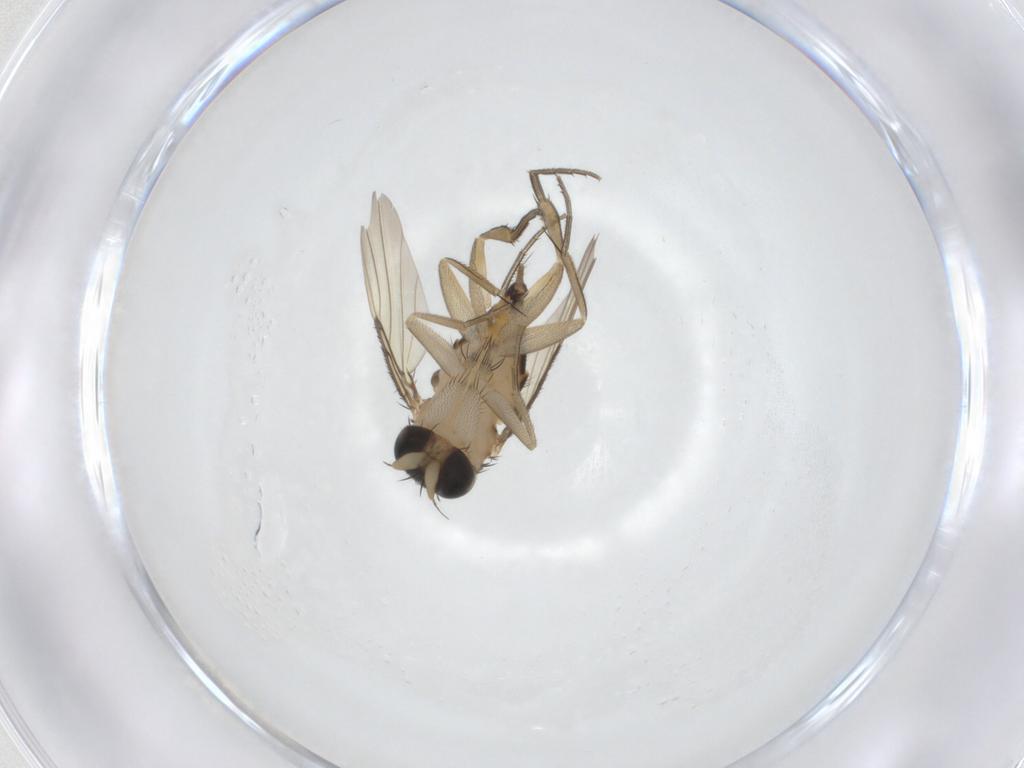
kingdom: Animalia
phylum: Arthropoda
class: Insecta
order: Diptera
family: Phoridae
